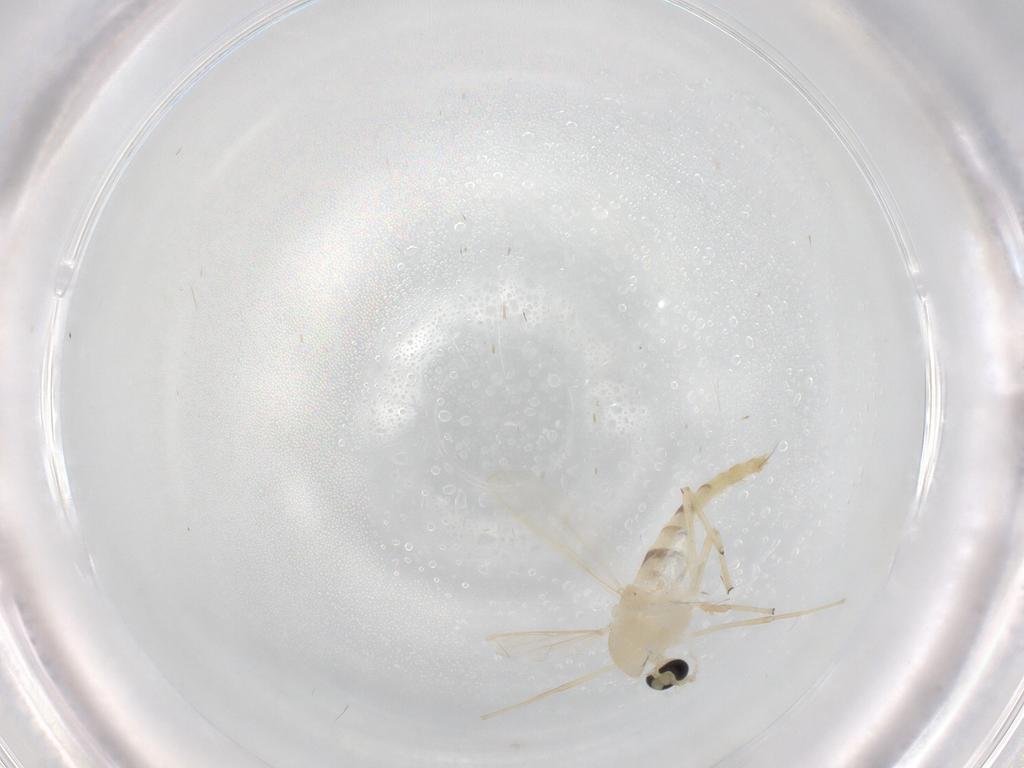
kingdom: Animalia
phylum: Arthropoda
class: Insecta
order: Diptera
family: Chironomidae
